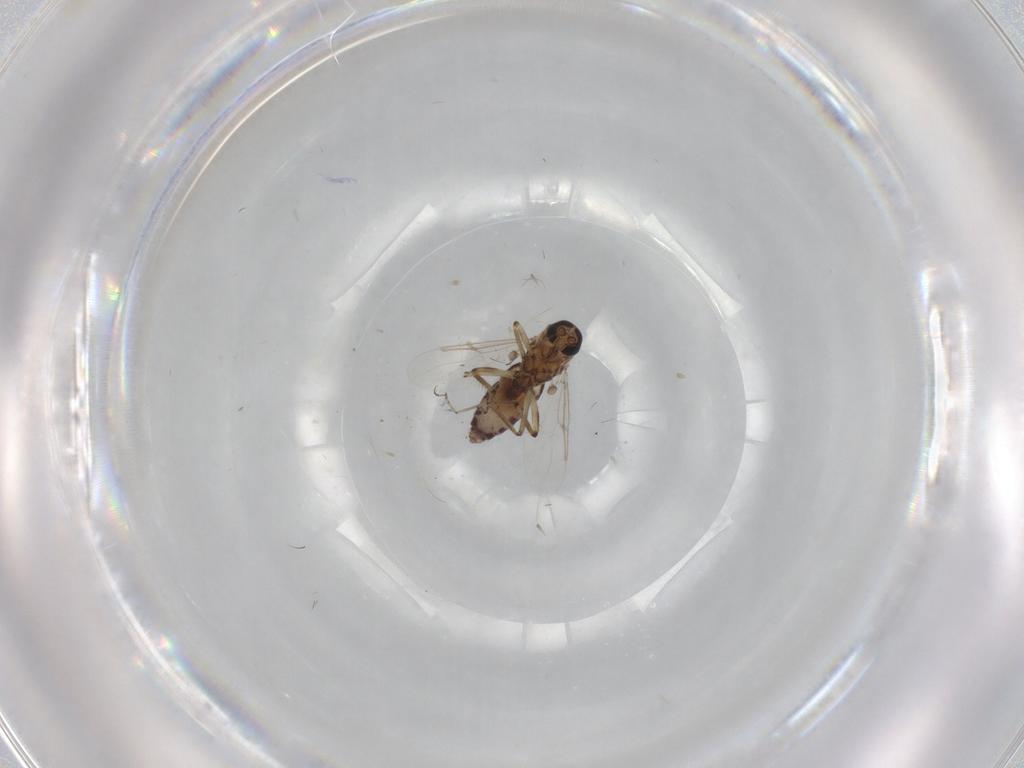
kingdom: Animalia
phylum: Arthropoda
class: Insecta
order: Diptera
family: Ceratopogonidae
